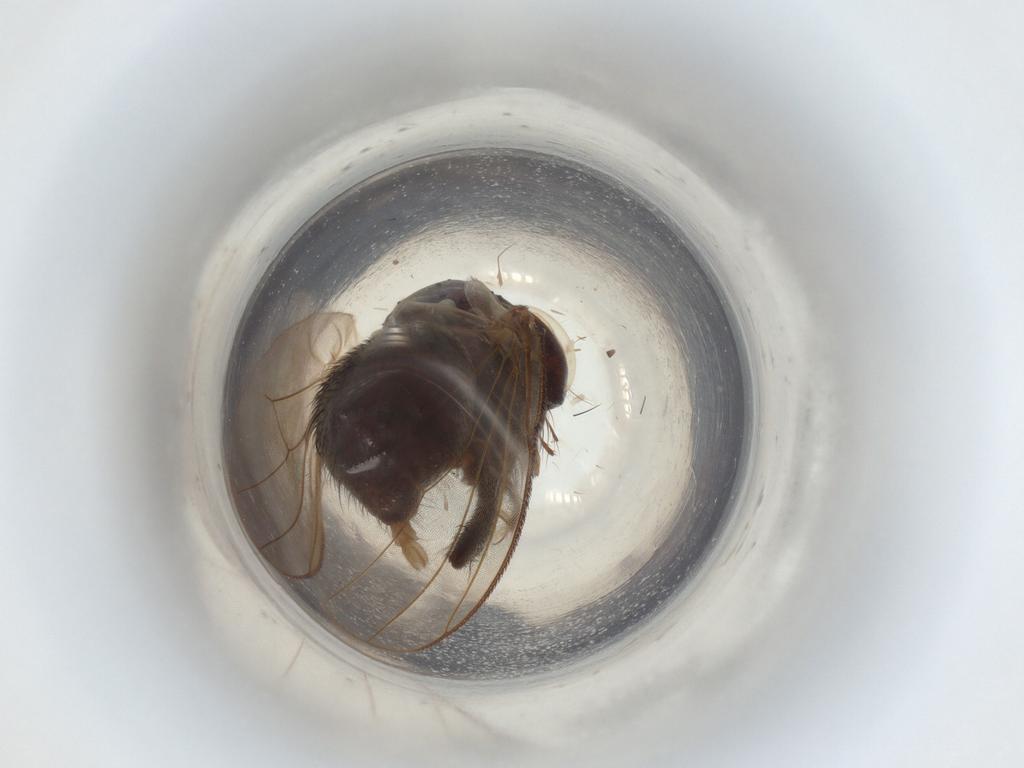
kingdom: Animalia
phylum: Arthropoda
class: Insecta
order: Diptera
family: Muscidae
